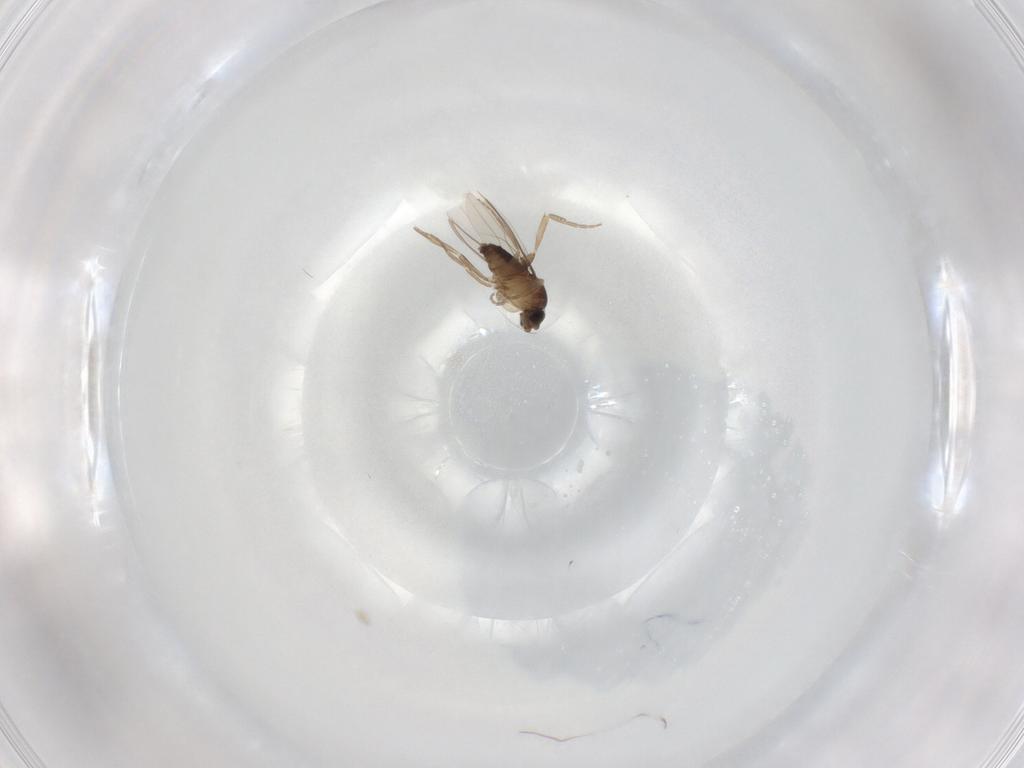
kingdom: Animalia
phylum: Arthropoda
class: Insecta
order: Diptera
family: Phoridae
